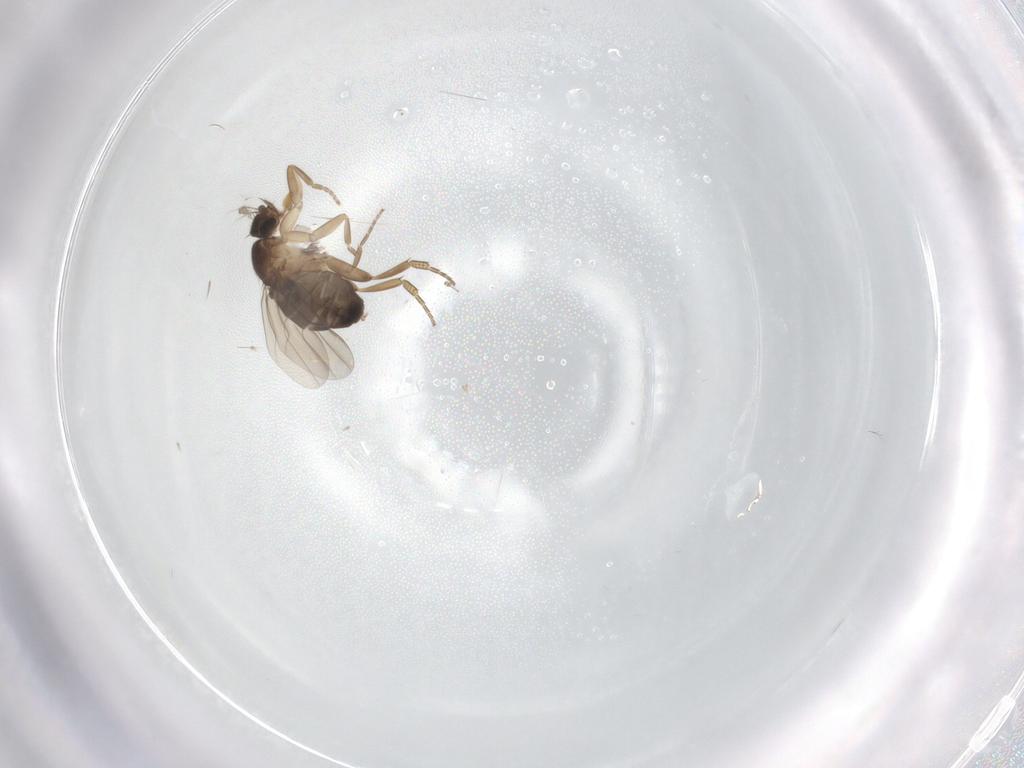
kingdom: Animalia
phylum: Arthropoda
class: Insecta
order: Diptera
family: Phoridae
